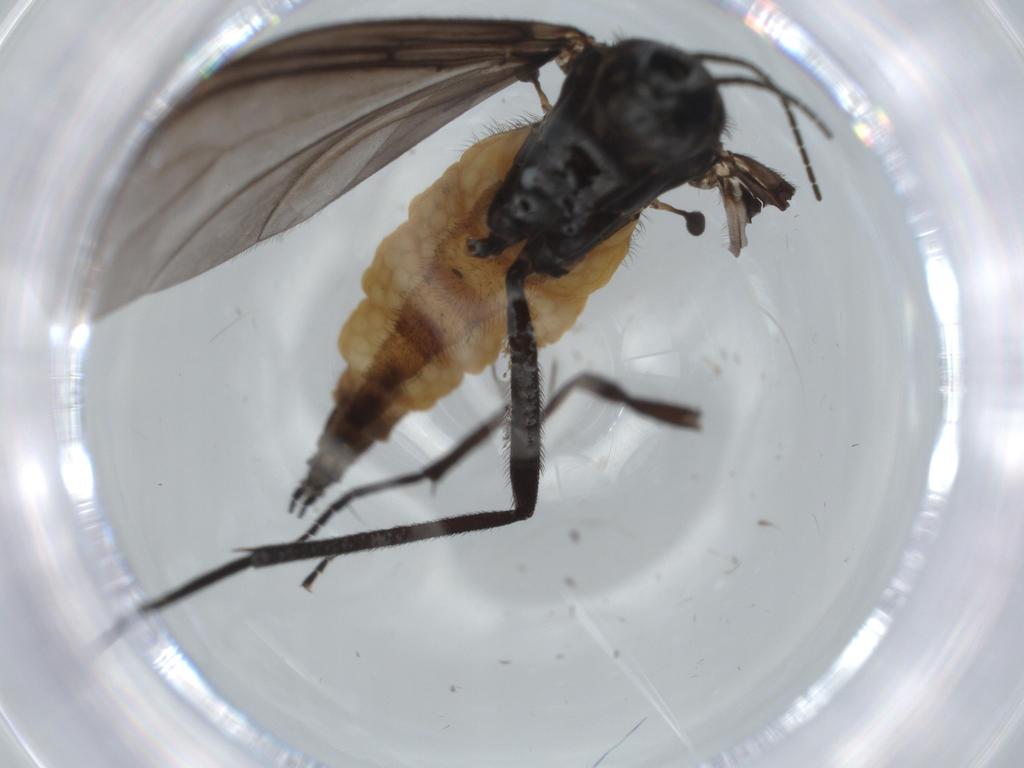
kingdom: Animalia
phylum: Arthropoda
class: Insecta
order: Diptera
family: Phoridae
